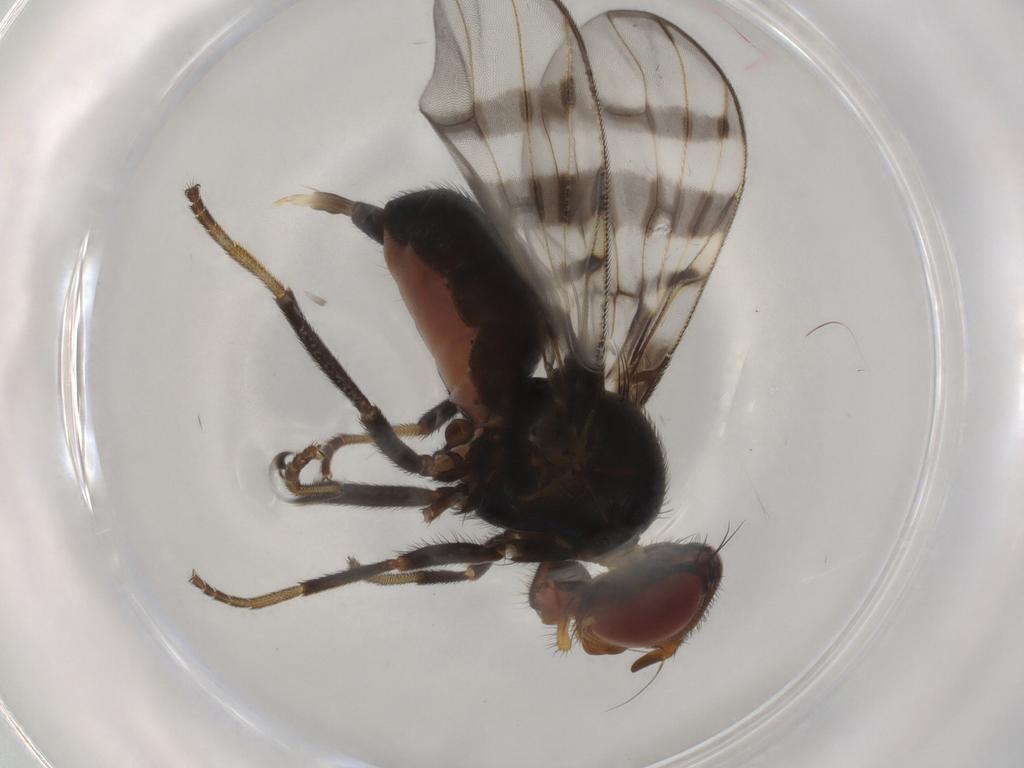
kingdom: Animalia
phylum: Arthropoda
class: Insecta
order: Diptera
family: Platystomatidae
